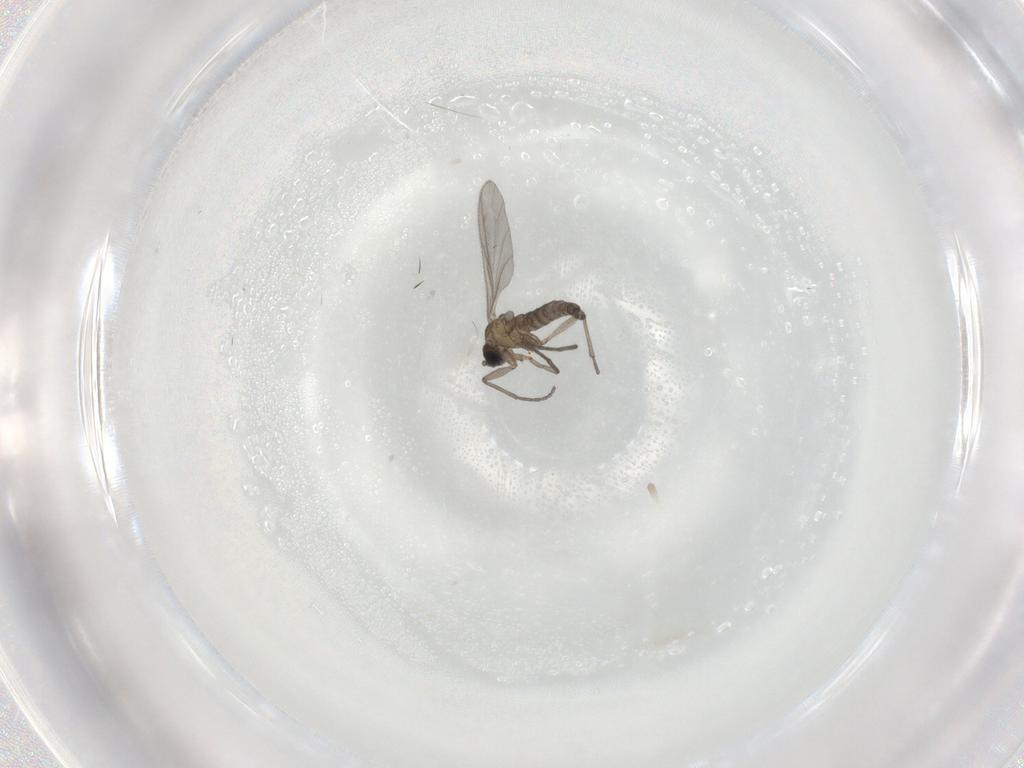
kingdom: Animalia
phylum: Arthropoda
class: Insecta
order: Diptera
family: Sciaridae
